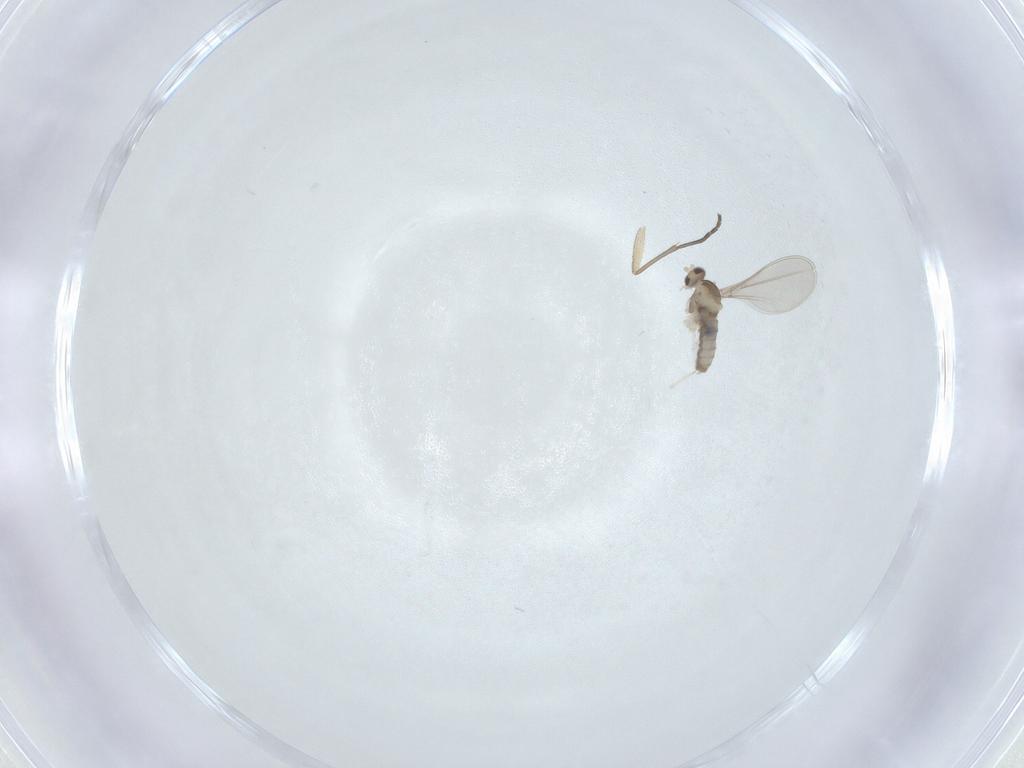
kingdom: Animalia
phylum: Arthropoda
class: Insecta
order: Diptera
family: Cecidomyiidae
